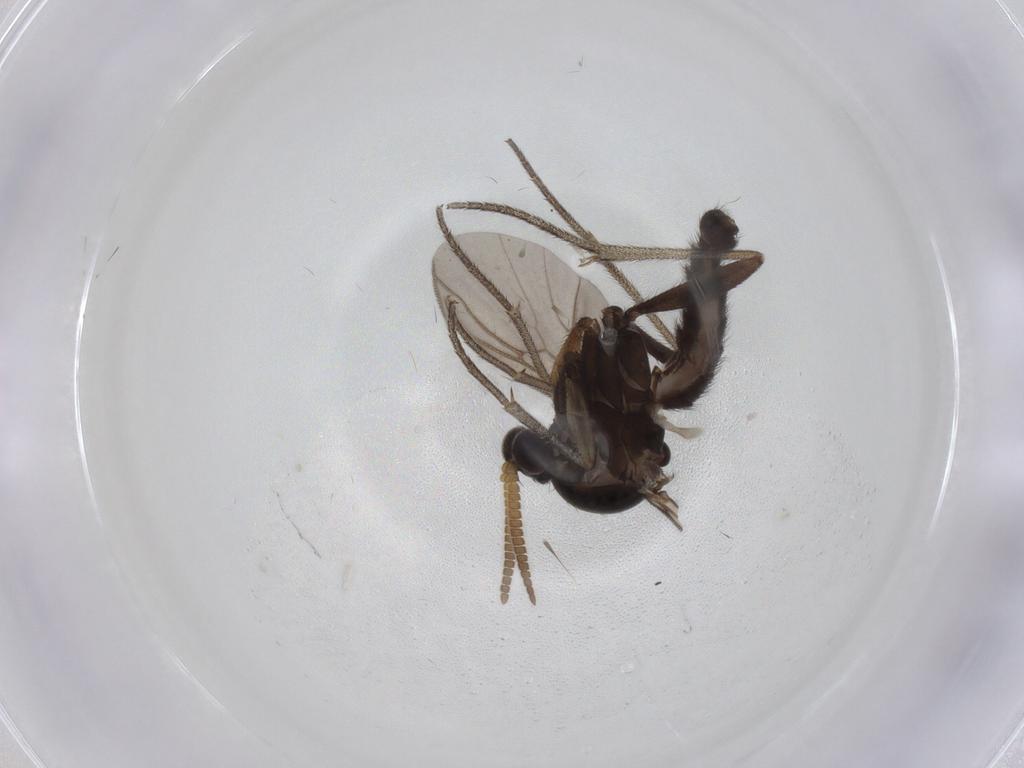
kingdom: Animalia
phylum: Arthropoda
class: Insecta
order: Diptera
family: Mycetophilidae
